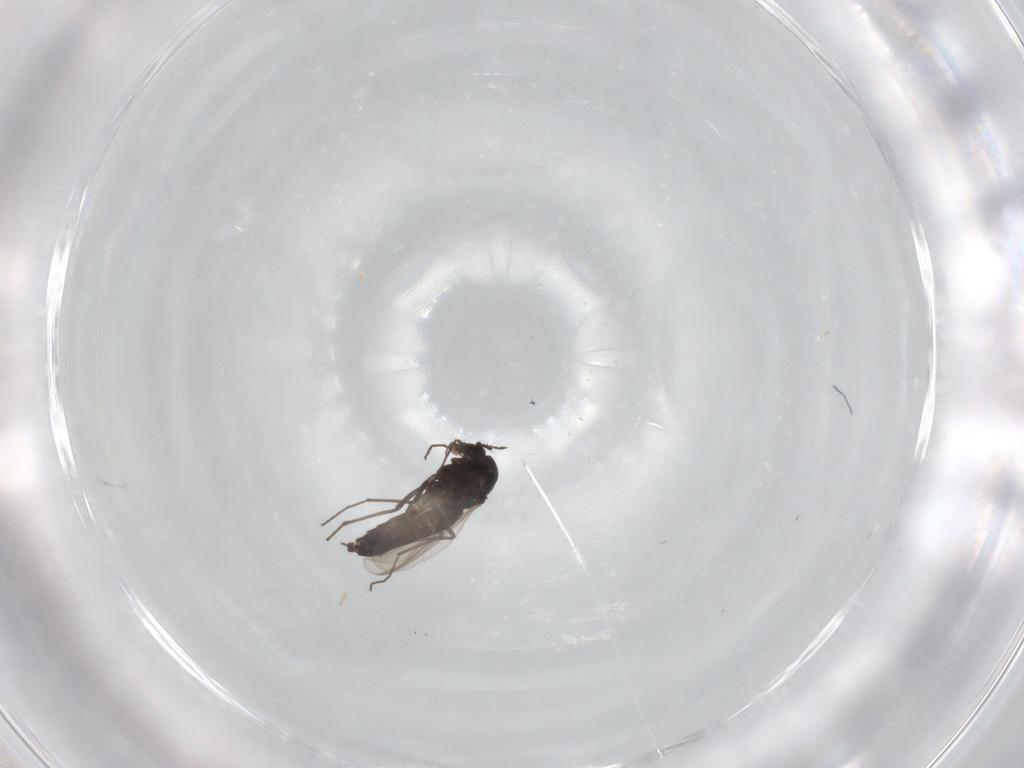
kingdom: Animalia
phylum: Arthropoda
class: Insecta
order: Diptera
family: Chironomidae
